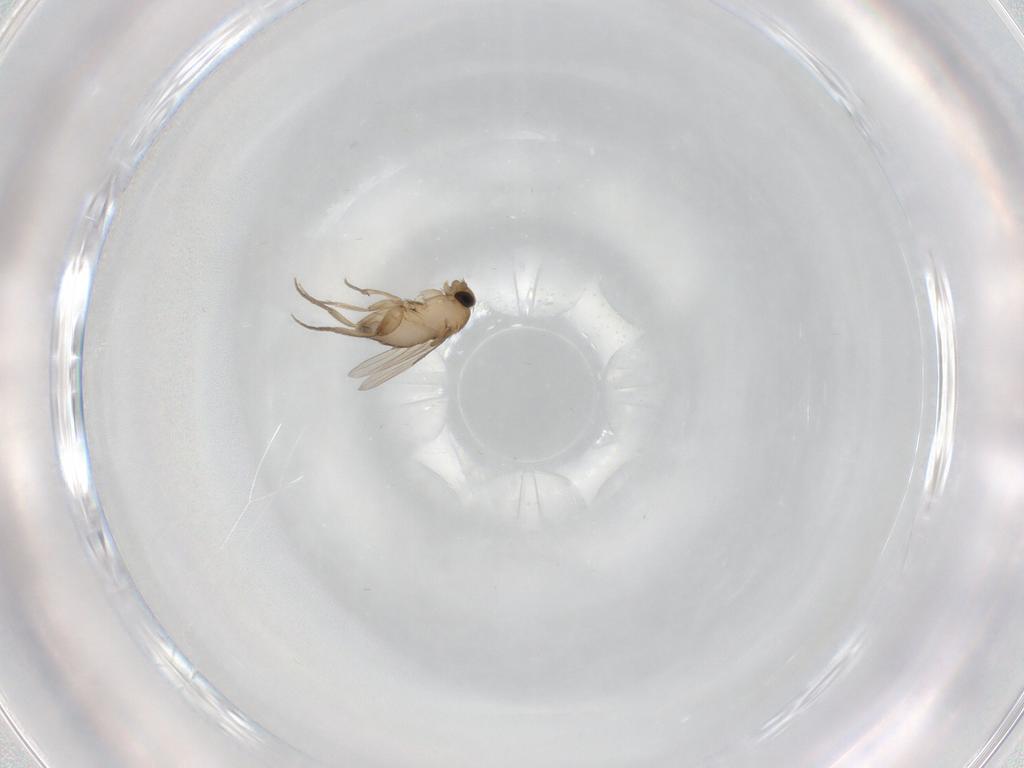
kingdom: Animalia
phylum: Arthropoda
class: Insecta
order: Diptera
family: Phoridae
